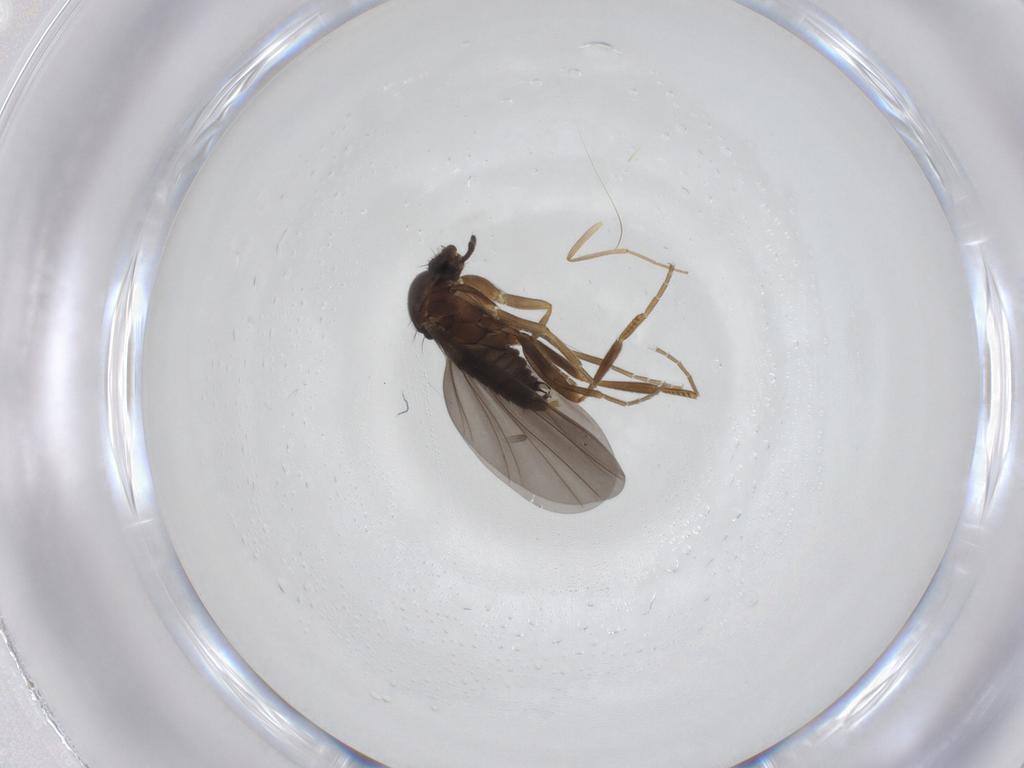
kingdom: Animalia
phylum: Arthropoda
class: Insecta
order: Diptera
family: Chironomidae
